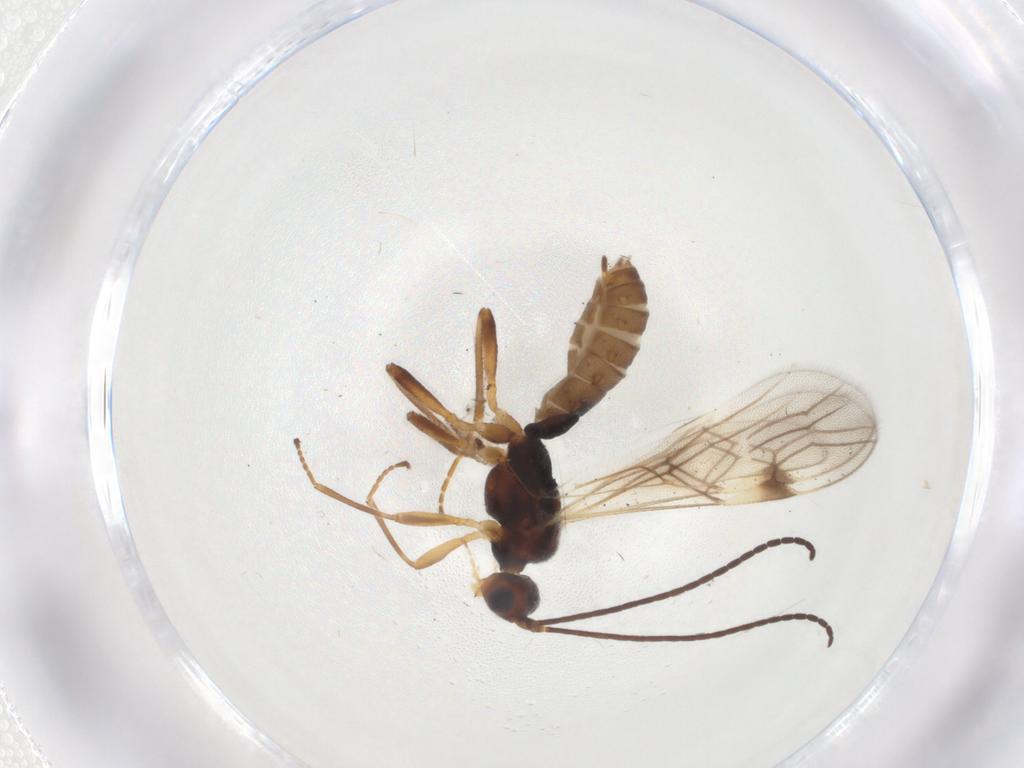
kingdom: Animalia
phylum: Arthropoda
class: Insecta
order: Hymenoptera
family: Braconidae
